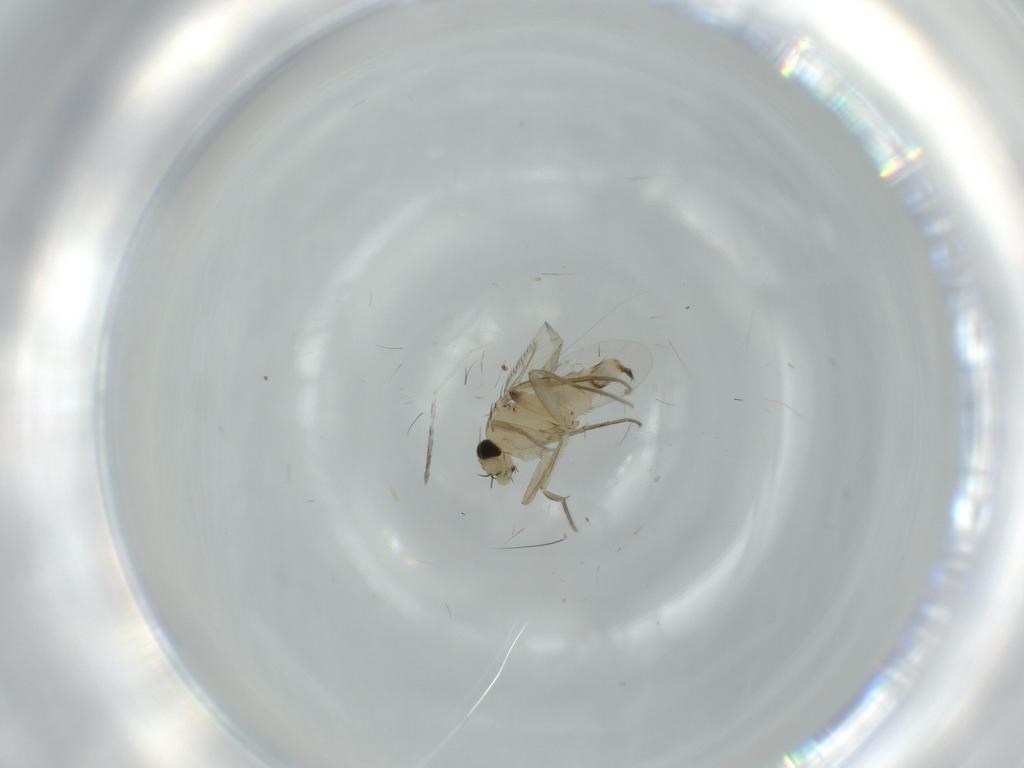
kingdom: Animalia
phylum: Arthropoda
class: Insecta
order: Diptera
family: Phoridae
